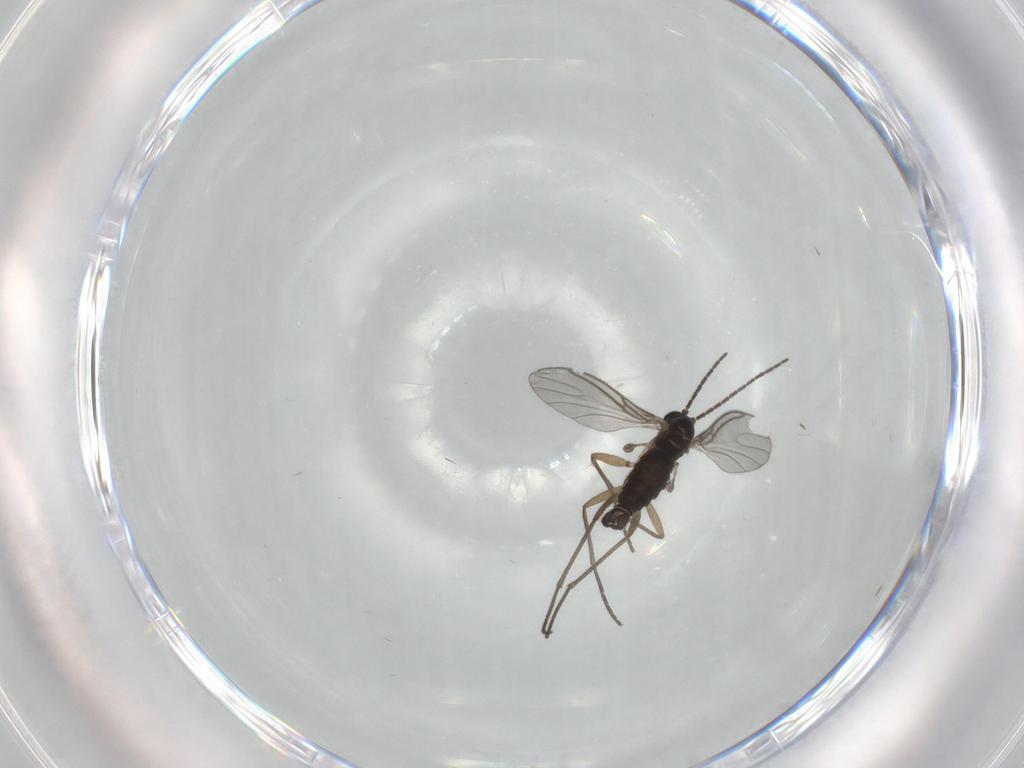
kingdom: Animalia
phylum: Arthropoda
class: Insecta
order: Diptera
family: Sciaridae
